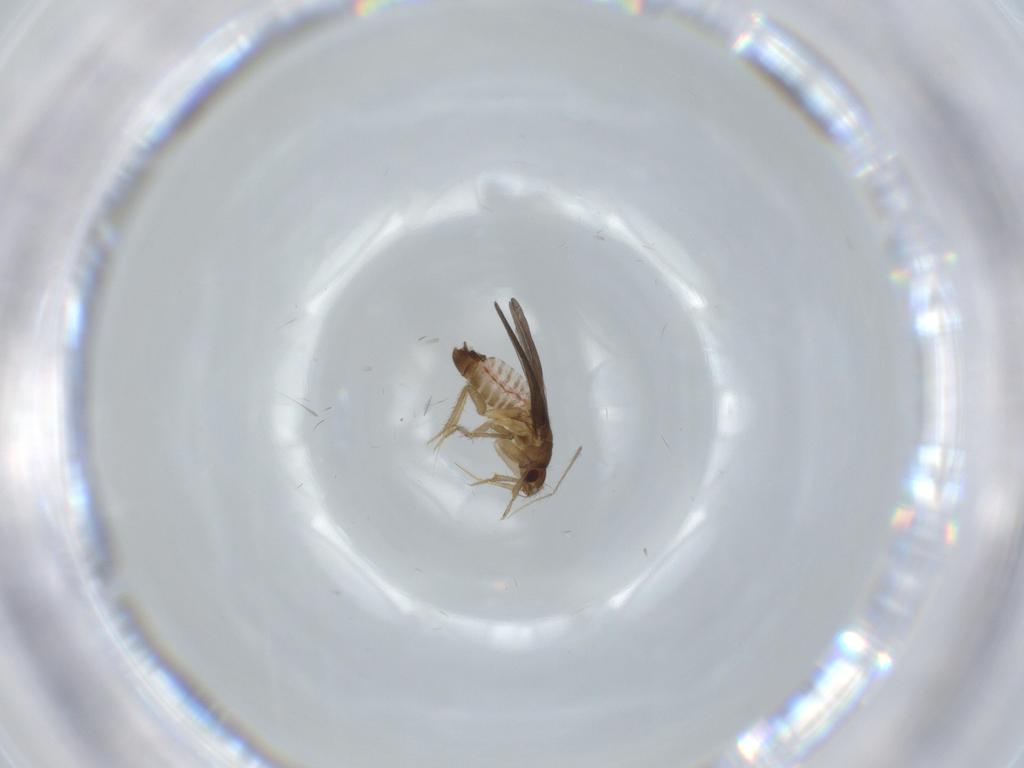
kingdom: Animalia
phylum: Arthropoda
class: Insecta
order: Hemiptera
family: Ceratocombidae
